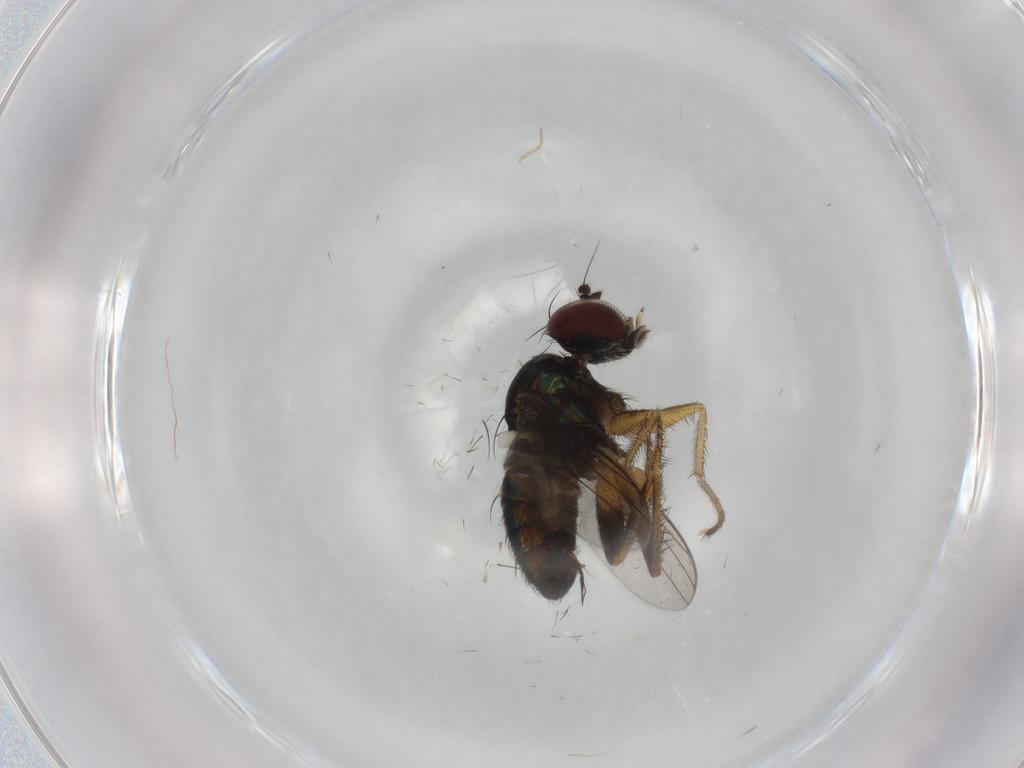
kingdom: Animalia
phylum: Arthropoda
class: Insecta
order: Diptera
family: Dolichopodidae
